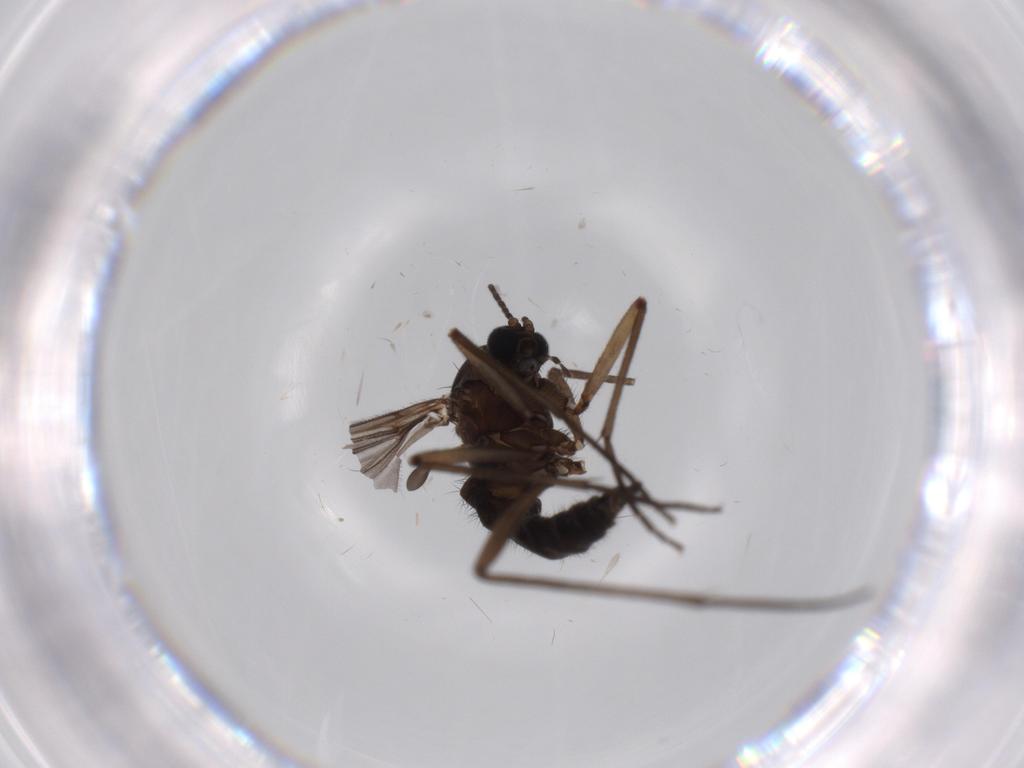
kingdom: Animalia
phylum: Arthropoda
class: Insecta
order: Diptera
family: Sciaridae
